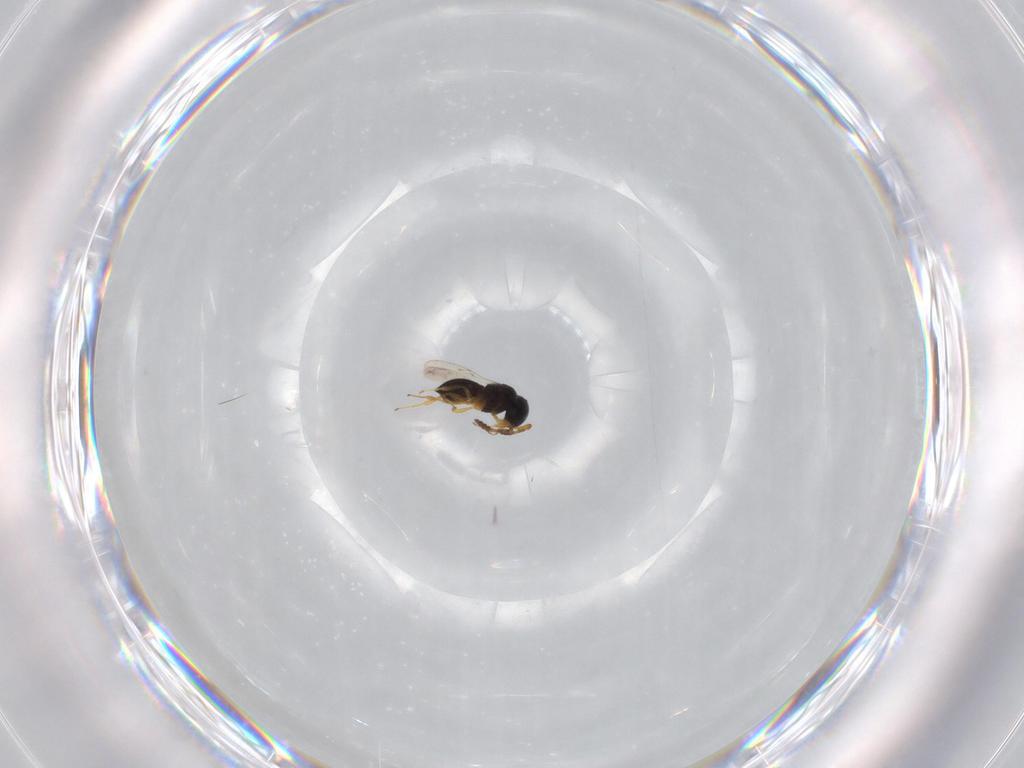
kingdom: Animalia
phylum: Arthropoda
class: Insecta
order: Hymenoptera
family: Scelionidae
